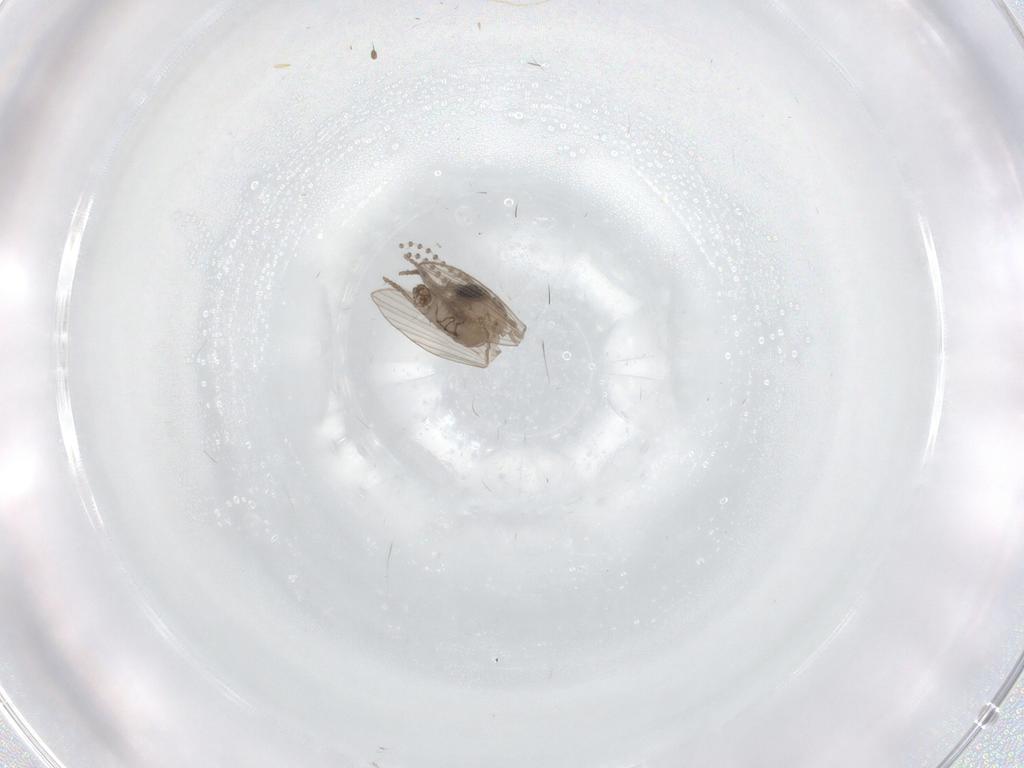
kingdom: Animalia
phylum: Arthropoda
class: Insecta
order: Diptera
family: Psychodidae
